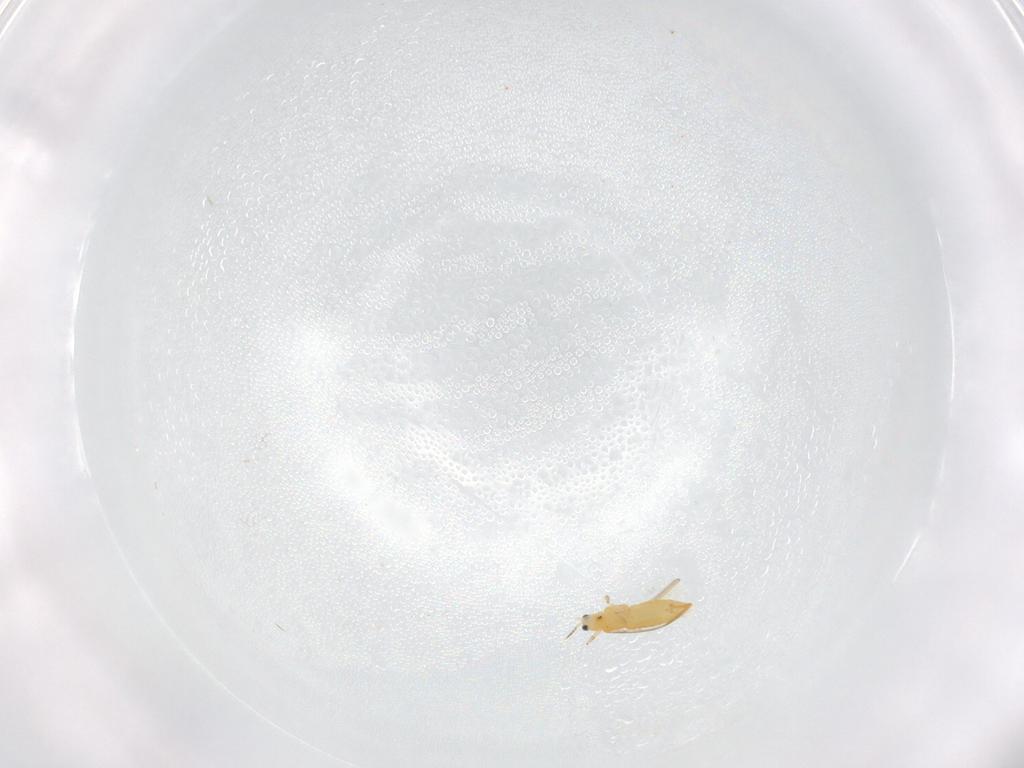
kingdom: Animalia
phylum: Arthropoda
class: Insecta
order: Thysanoptera
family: Thripidae
